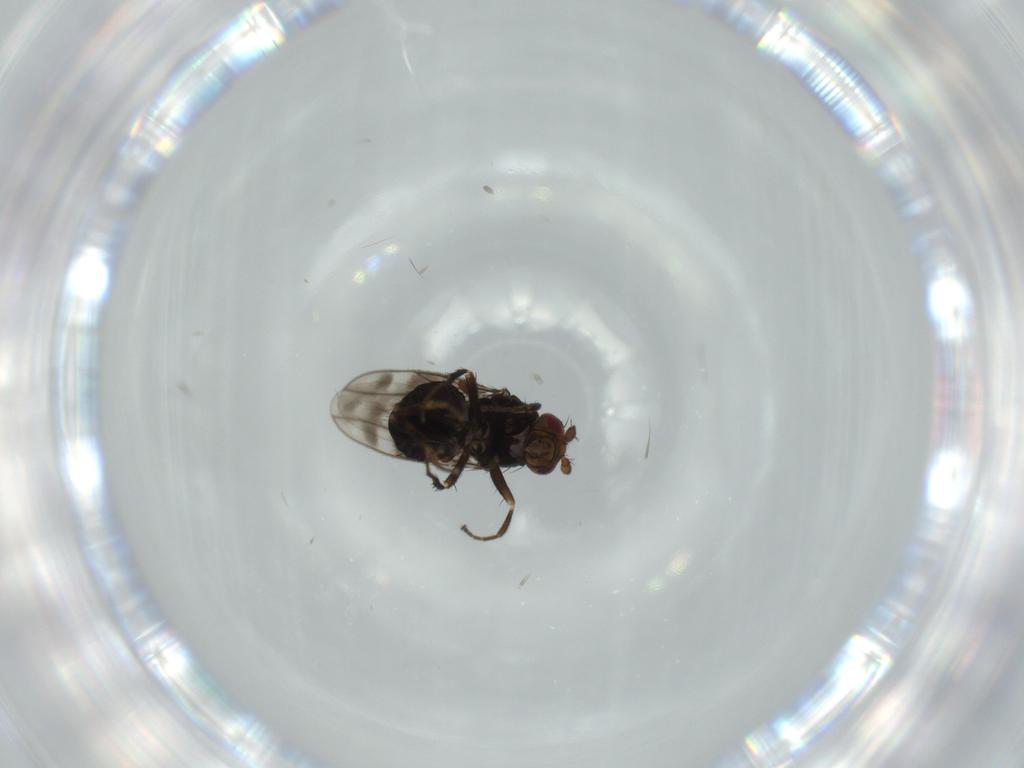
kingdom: Animalia
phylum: Arthropoda
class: Insecta
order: Diptera
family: Sphaeroceridae
